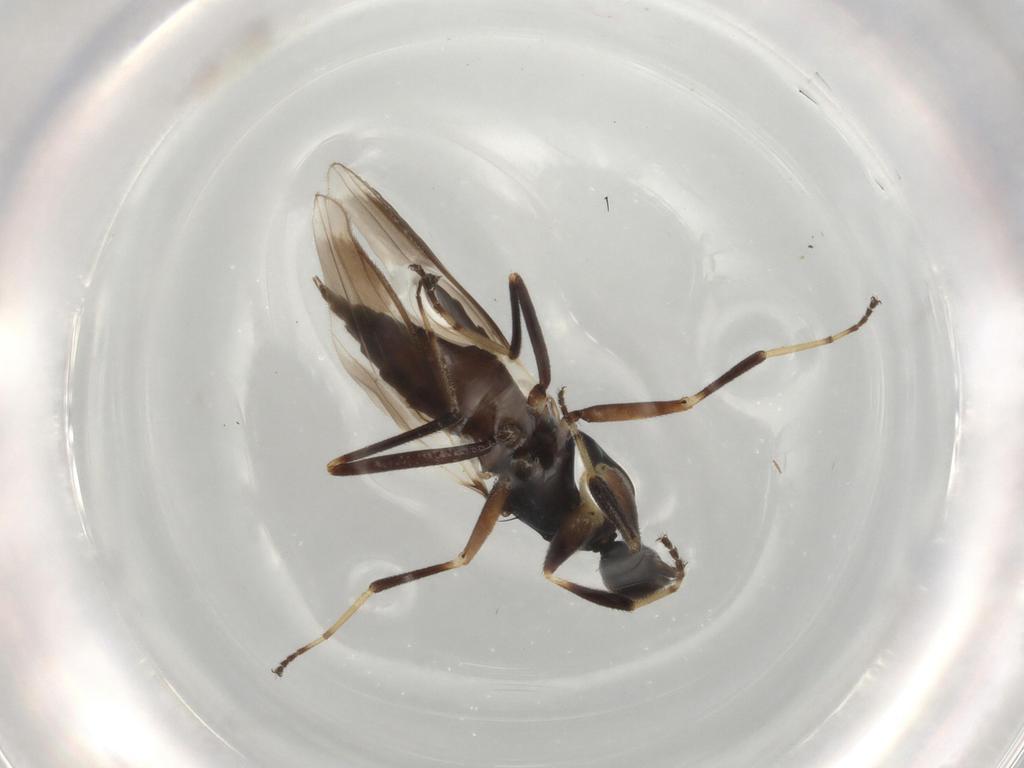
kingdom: Animalia
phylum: Arthropoda
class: Insecta
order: Diptera
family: Hybotidae
